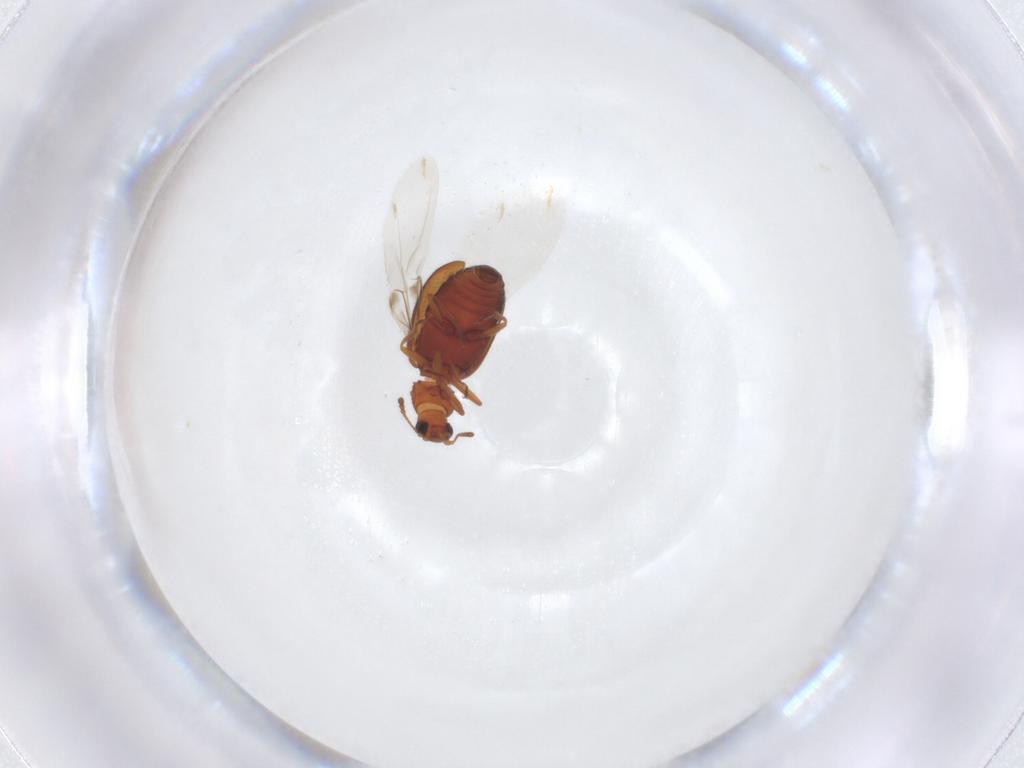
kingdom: Animalia
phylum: Arthropoda
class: Insecta
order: Coleoptera
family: Latridiidae
